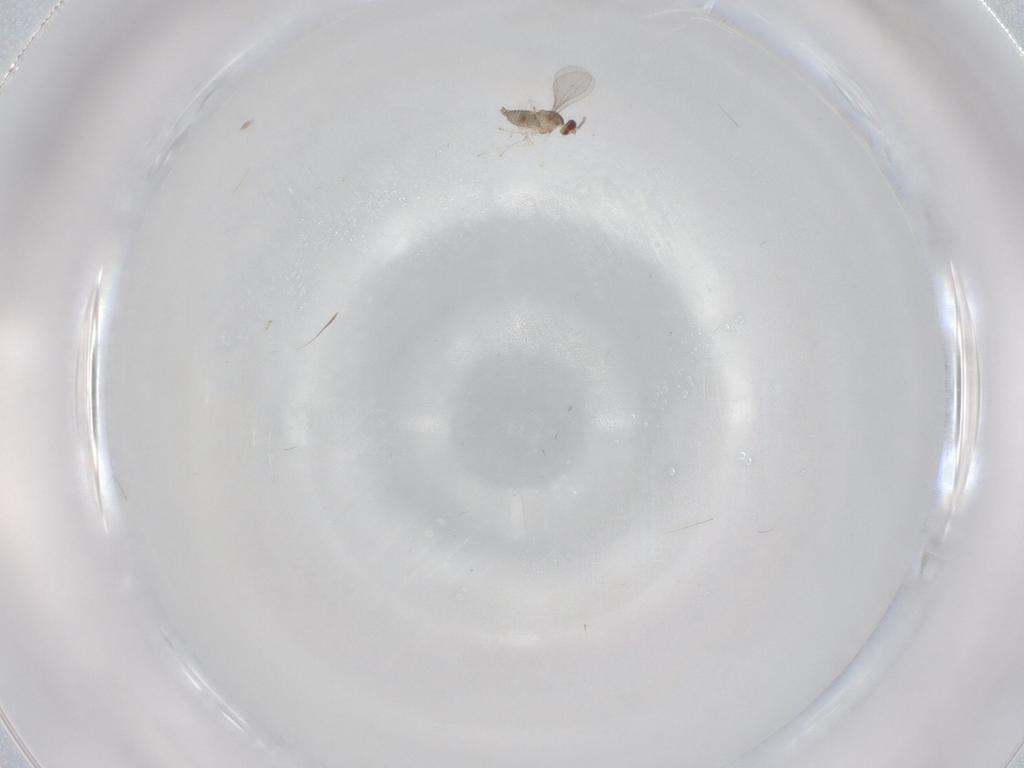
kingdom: Animalia
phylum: Arthropoda
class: Insecta
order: Diptera
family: Cecidomyiidae
